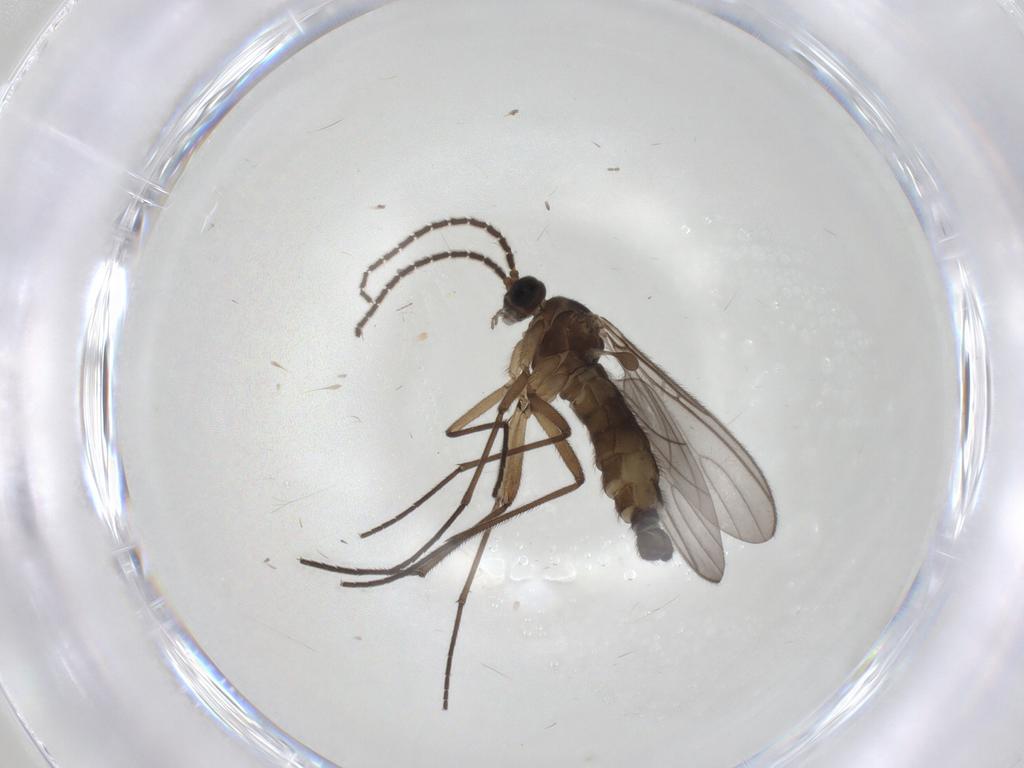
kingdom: Animalia
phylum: Arthropoda
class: Insecta
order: Diptera
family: Sciaridae
